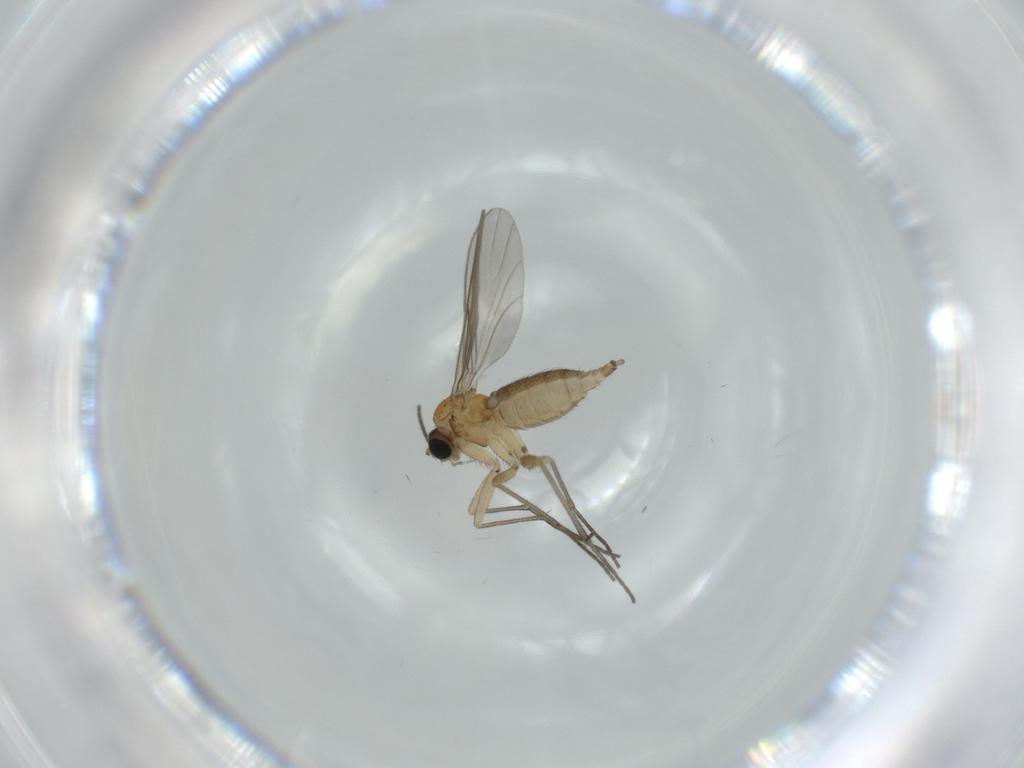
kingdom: Animalia
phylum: Arthropoda
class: Insecta
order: Diptera
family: Sciaridae
